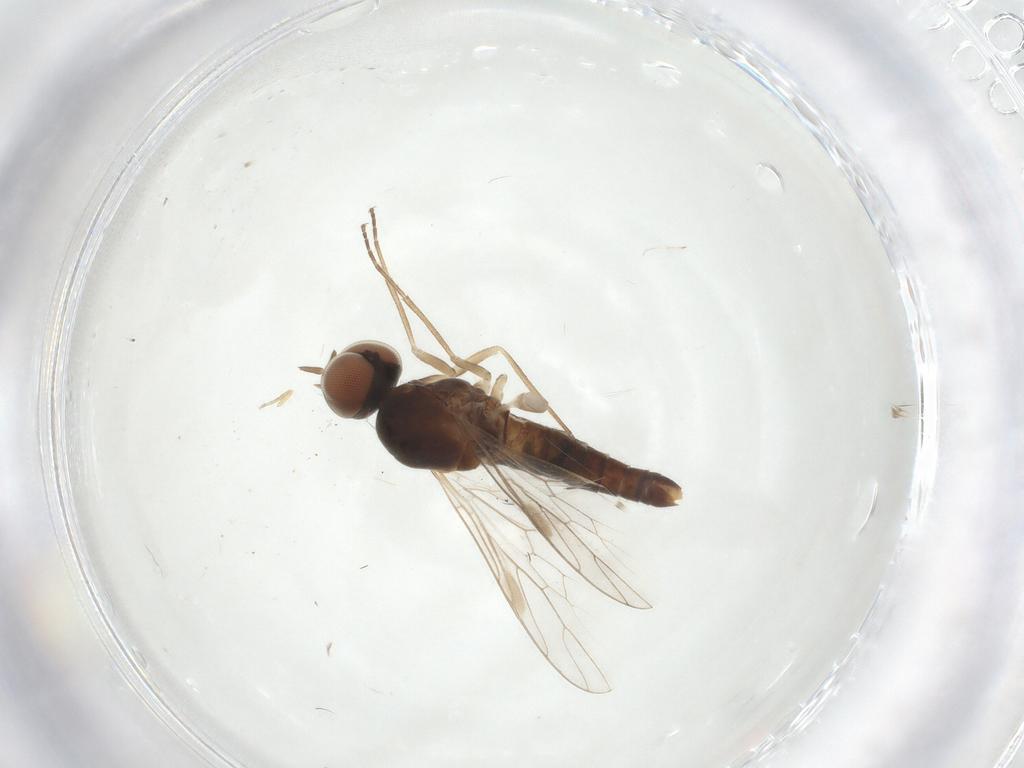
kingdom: Animalia
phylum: Arthropoda
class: Insecta
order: Diptera
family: Scenopinidae
